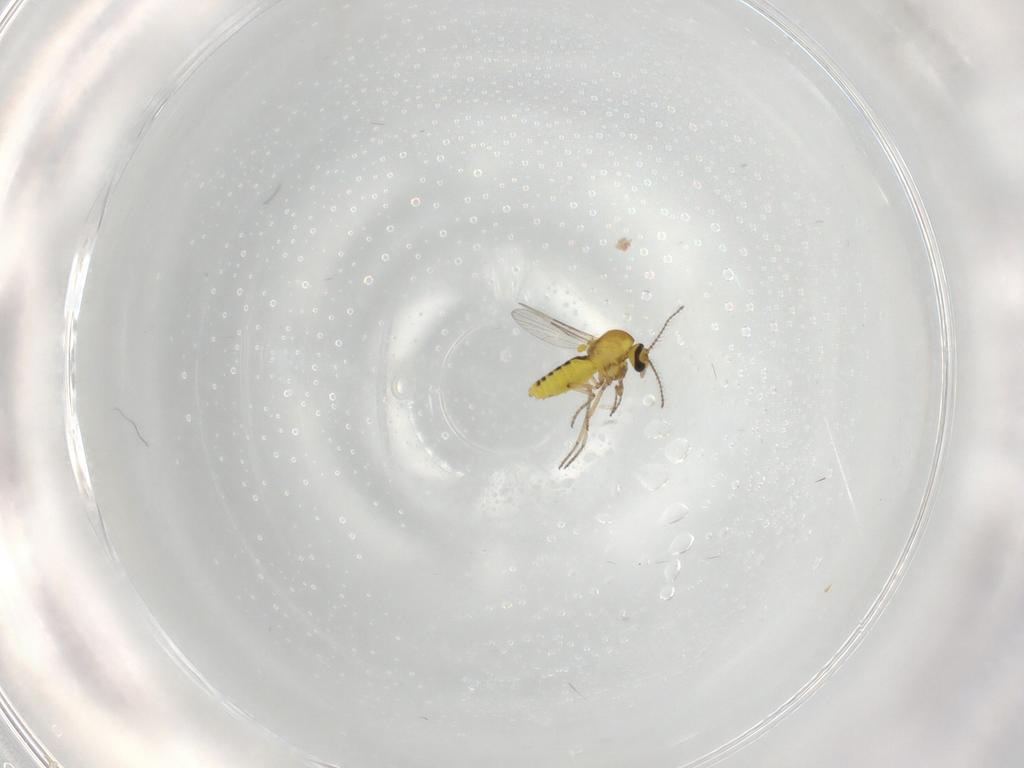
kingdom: Animalia
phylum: Arthropoda
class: Insecta
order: Diptera
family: Ceratopogonidae
